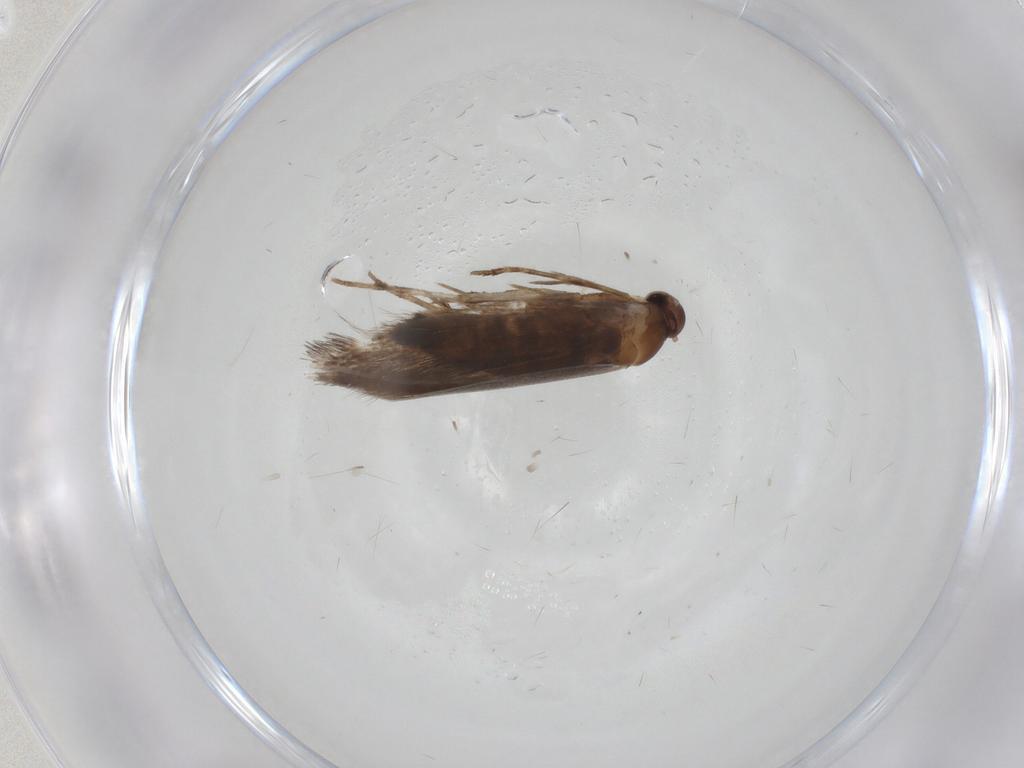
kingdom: Animalia
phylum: Arthropoda
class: Insecta
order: Lepidoptera
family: Elachistidae
